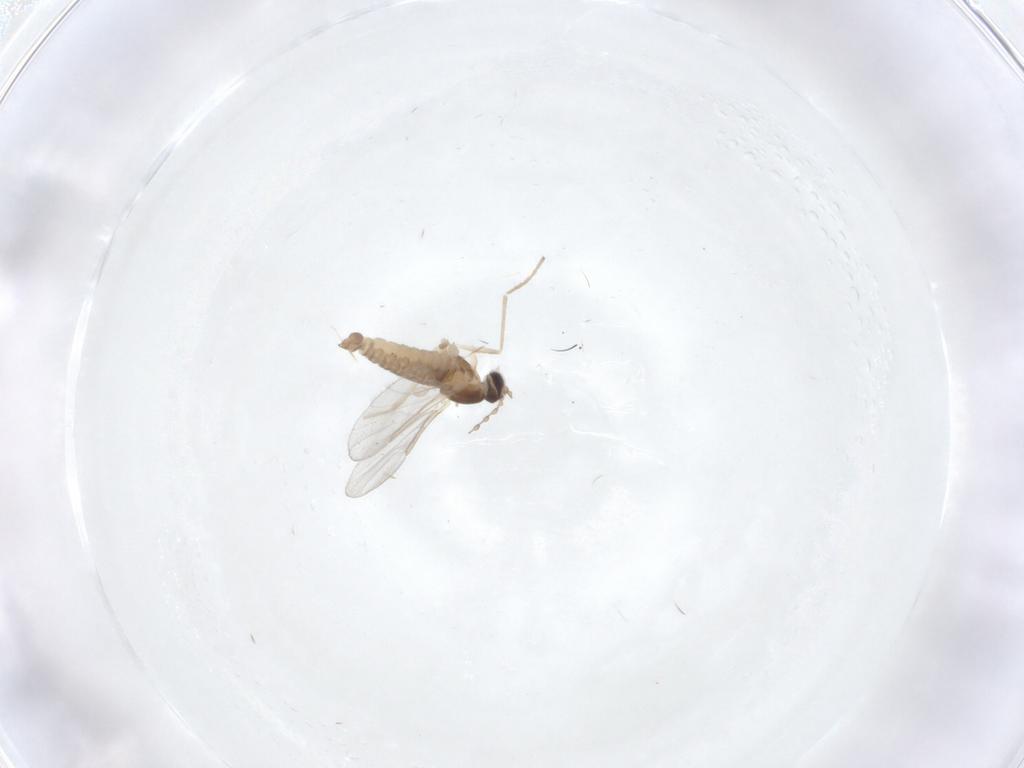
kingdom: Animalia
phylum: Arthropoda
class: Insecta
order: Diptera
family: Cecidomyiidae
